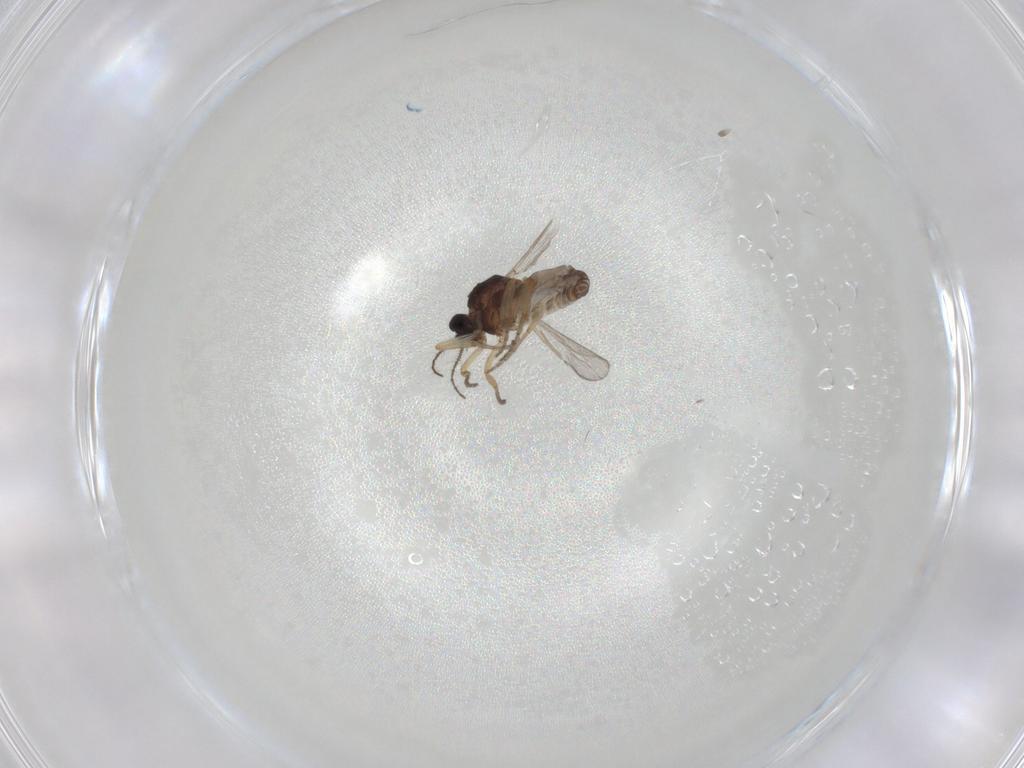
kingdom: Animalia
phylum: Arthropoda
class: Insecta
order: Diptera
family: Ceratopogonidae
